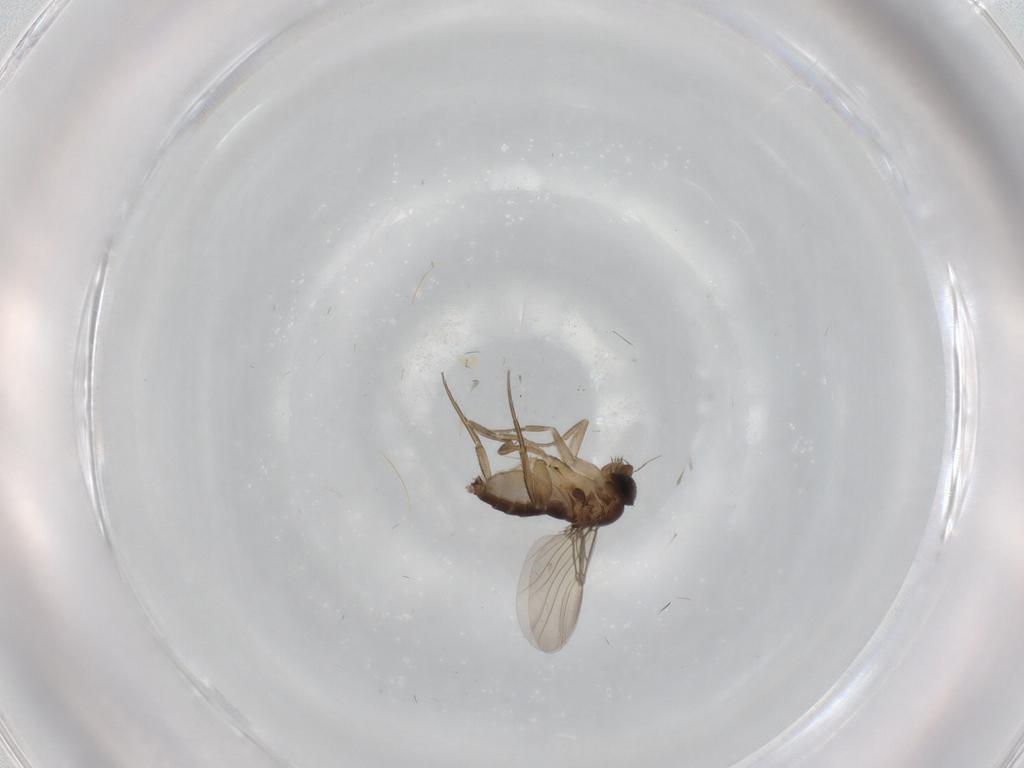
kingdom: Animalia
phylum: Arthropoda
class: Insecta
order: Diptera
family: Phoridae
